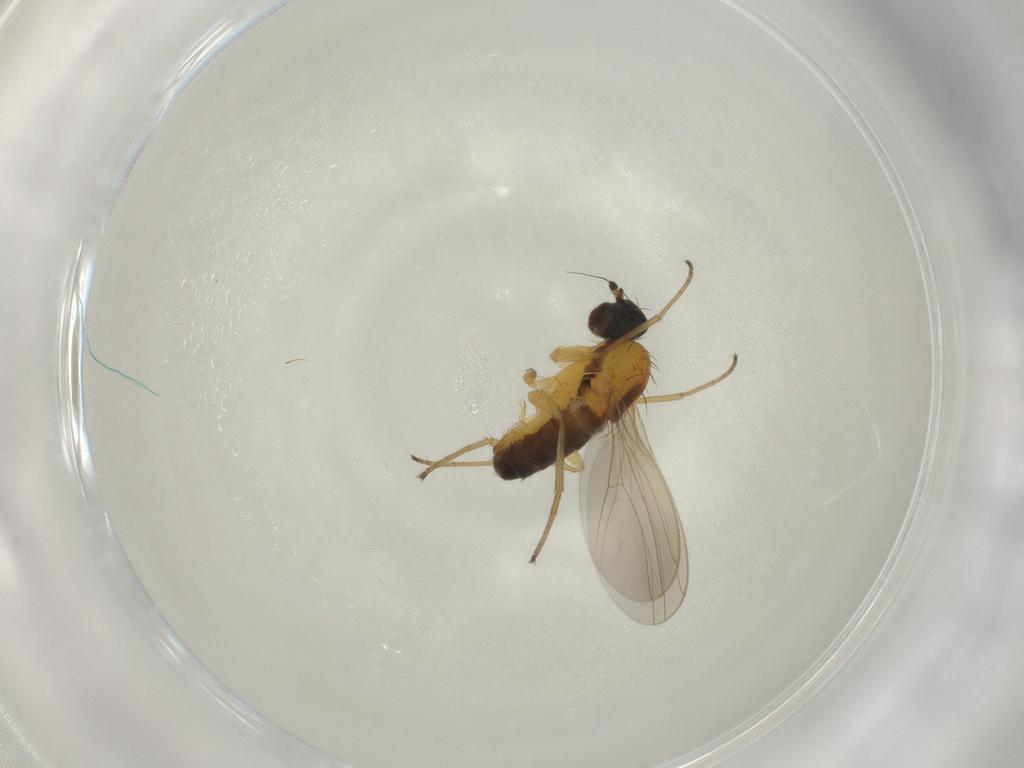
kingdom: Animalia
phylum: Arthropoda
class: Insecta
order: Diptera
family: Dolichopodidae
